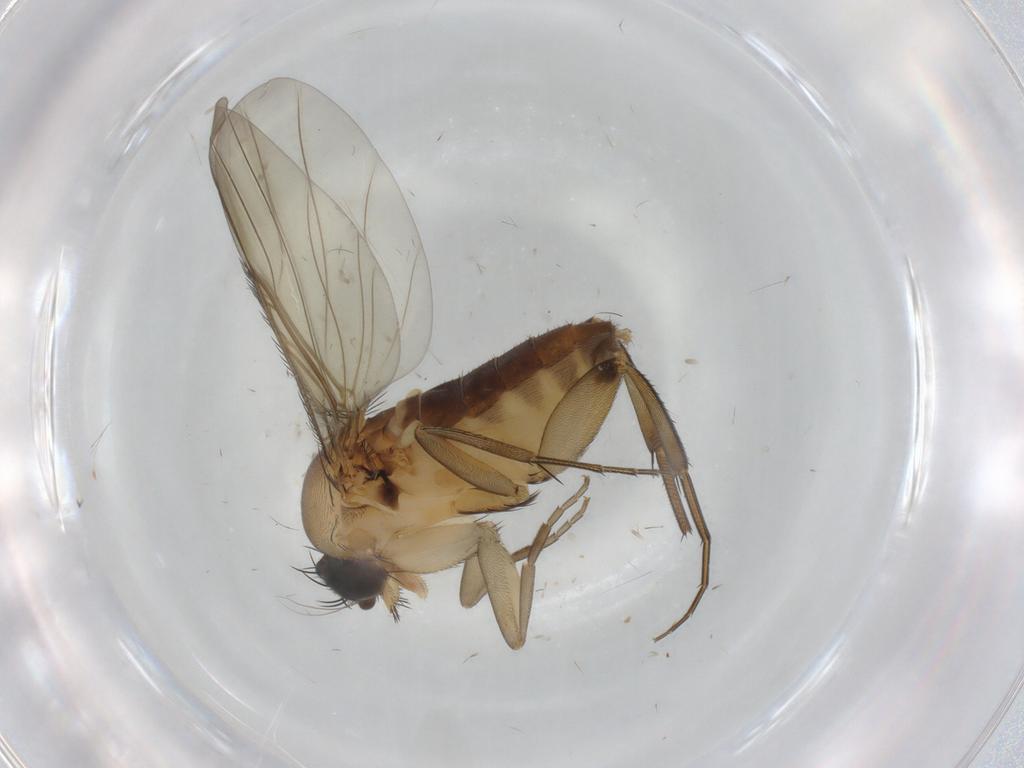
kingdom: Animalia
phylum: Arthropoda
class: Insecta
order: Diptera
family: Phoridae
